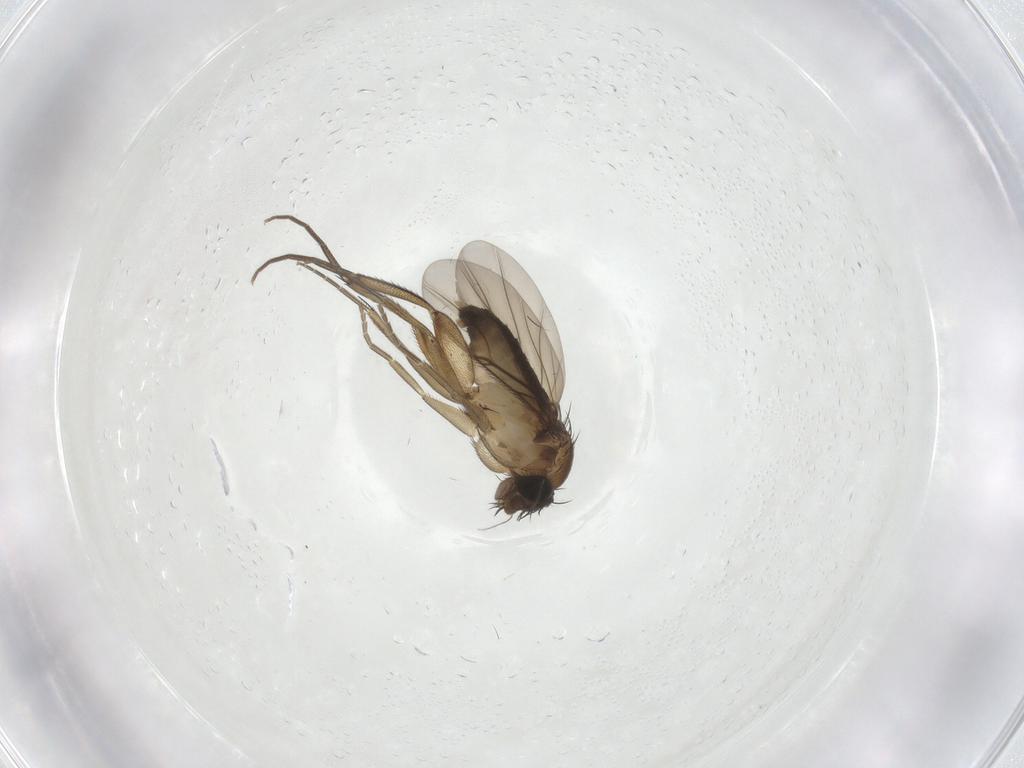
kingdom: Animalia
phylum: Arthropoda
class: Insecta
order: Diptera
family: Phoridae
